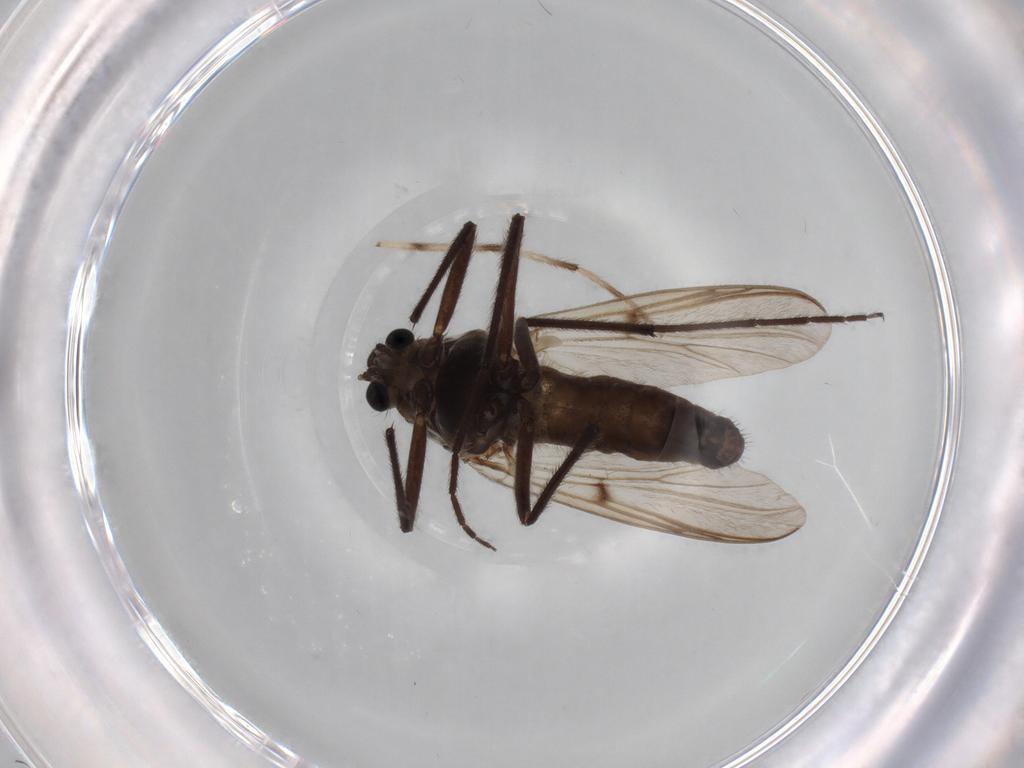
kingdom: Animalia
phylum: Arthropoda
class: Insecta
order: Diptera
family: Chironomidae
